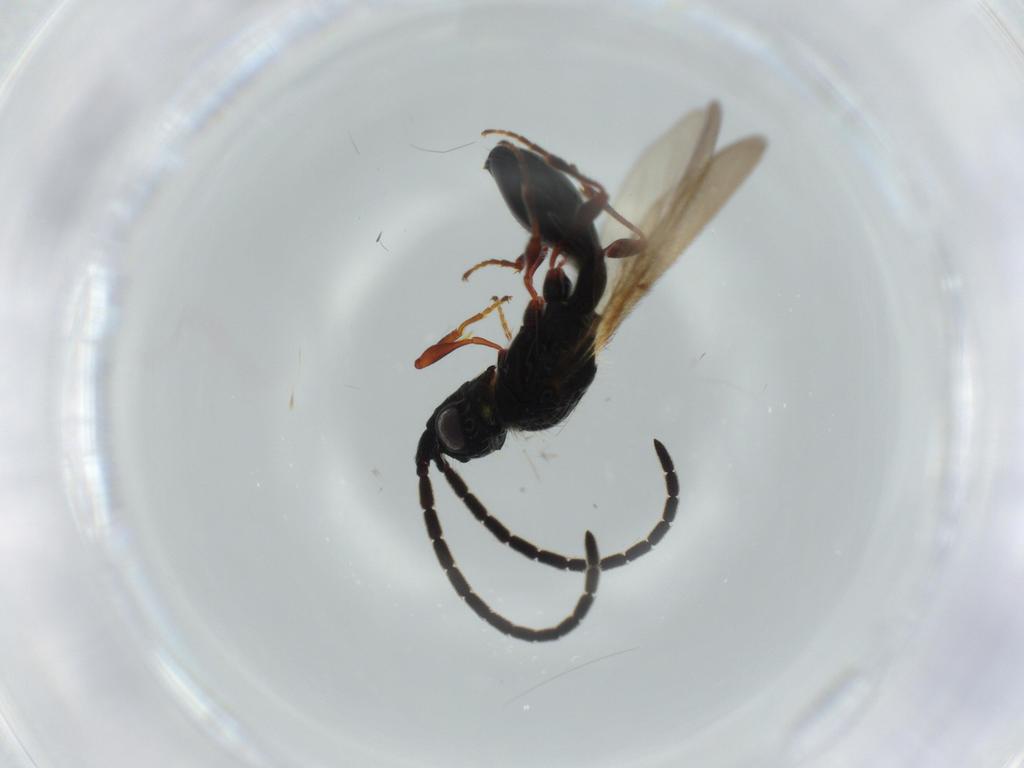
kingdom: Animalia
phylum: Arthropoda
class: Insecta
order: Hymenoptera
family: Diapriidae
